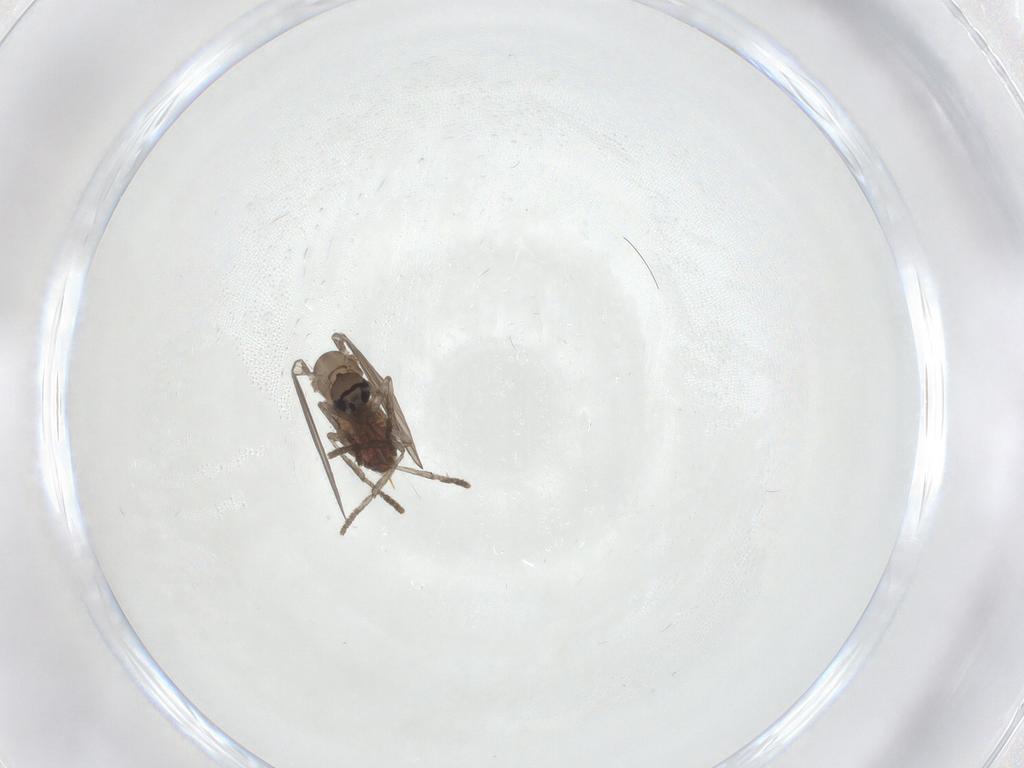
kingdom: Animalia
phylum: Arthropoda
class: Insecta
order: Diptera
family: Psychodidae
